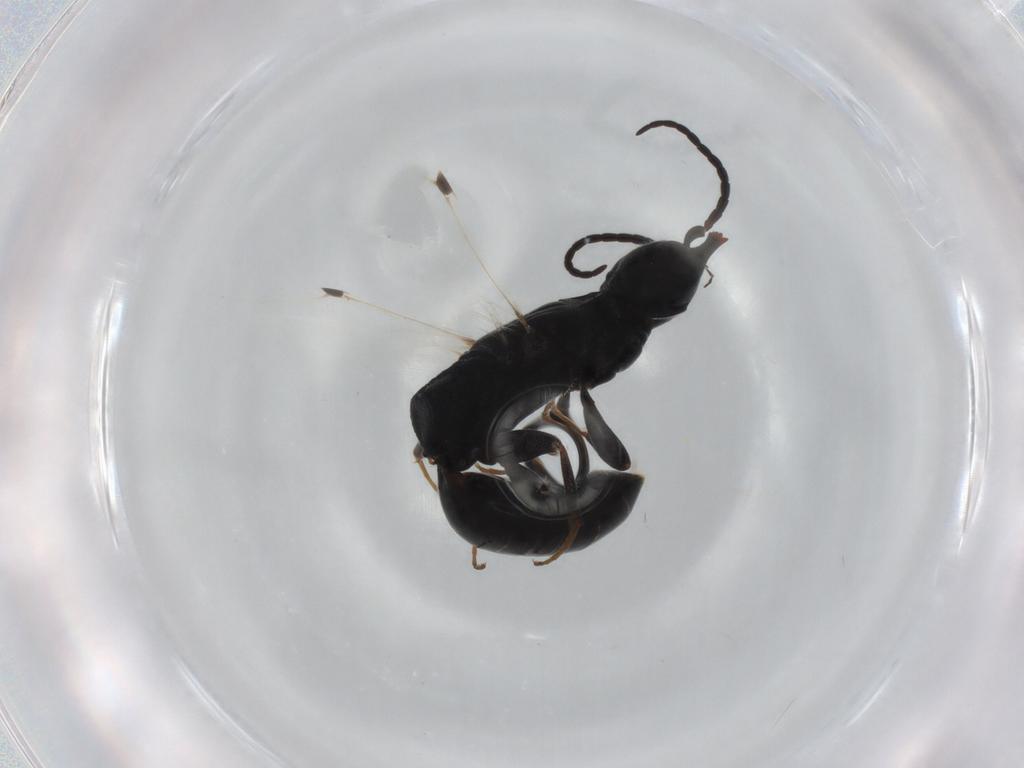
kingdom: Animalia
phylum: Arthropoda
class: Insecta
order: Hymenoptera
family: Bethylidae
